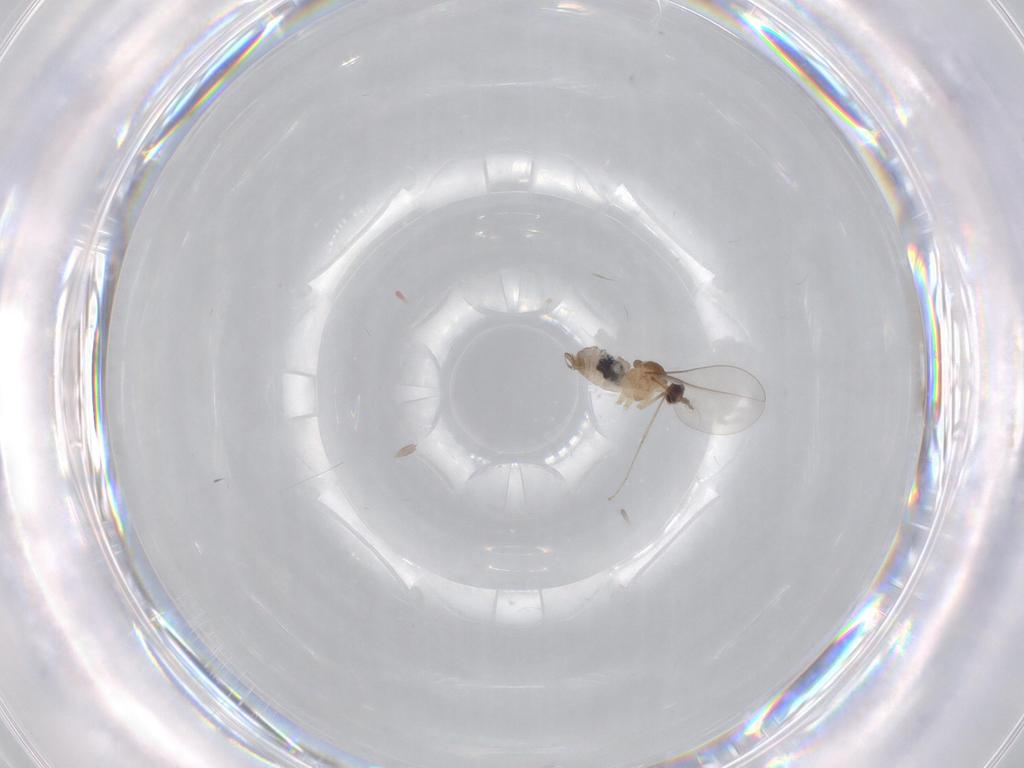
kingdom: Animalia
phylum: Arthropoda
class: Insecta
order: Diptera
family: Cecidomyiidae
